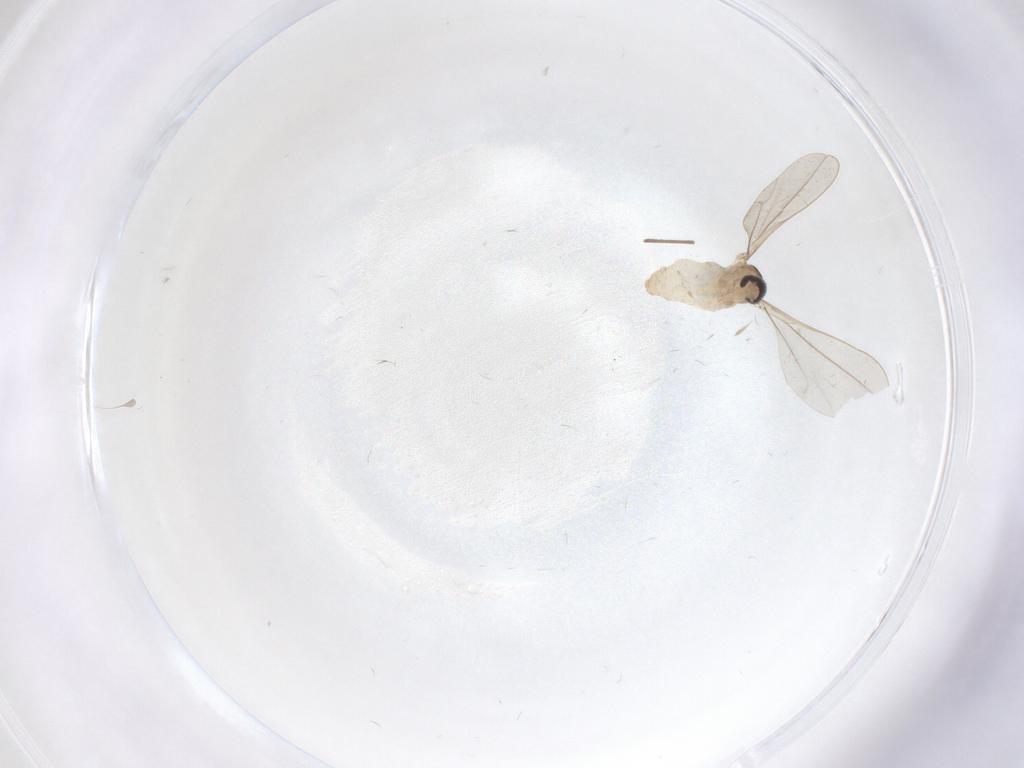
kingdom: Animalia
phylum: Arthropoda
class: Insecta
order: Diptera
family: Cecidomyiidae
